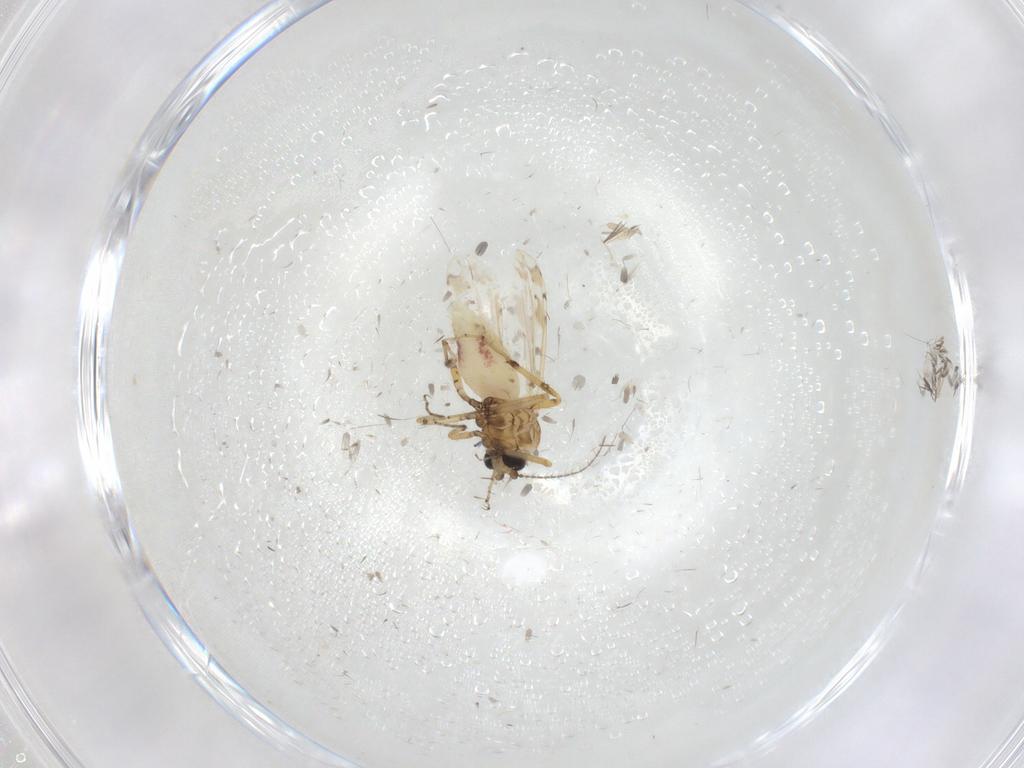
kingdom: Animalia
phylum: Arthropoda
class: Insecta
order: Diptera
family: Ceratopogonidae
